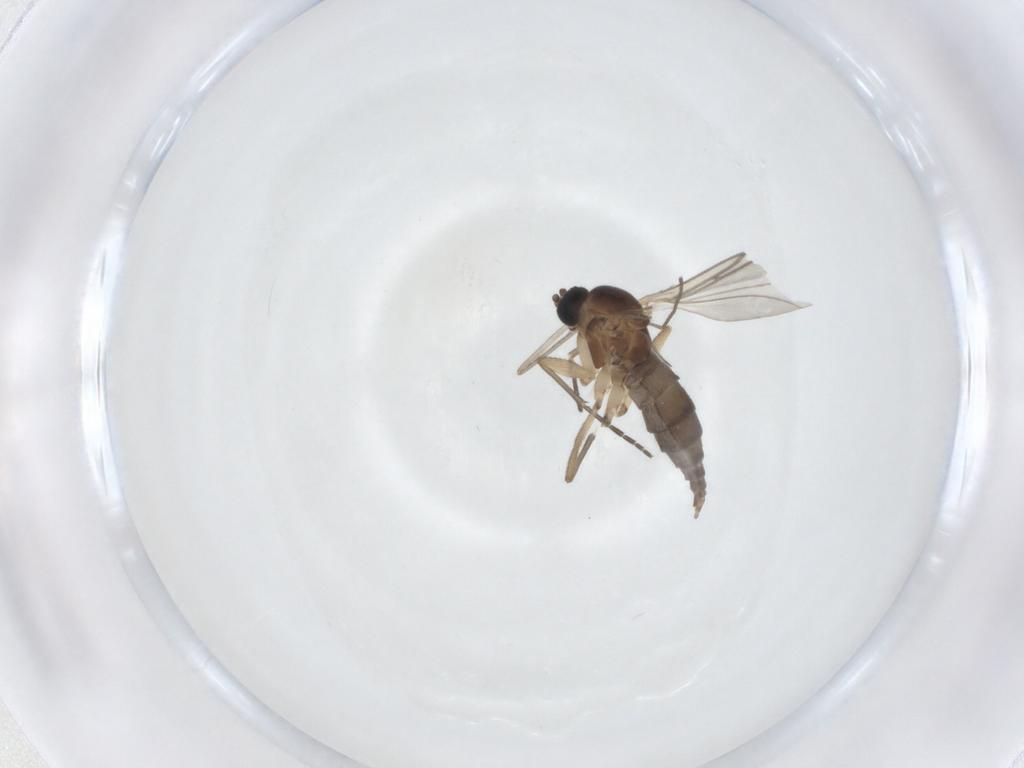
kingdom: Animalia
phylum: Arthropoda
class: Insecta
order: Diptera
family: Sciaridae
